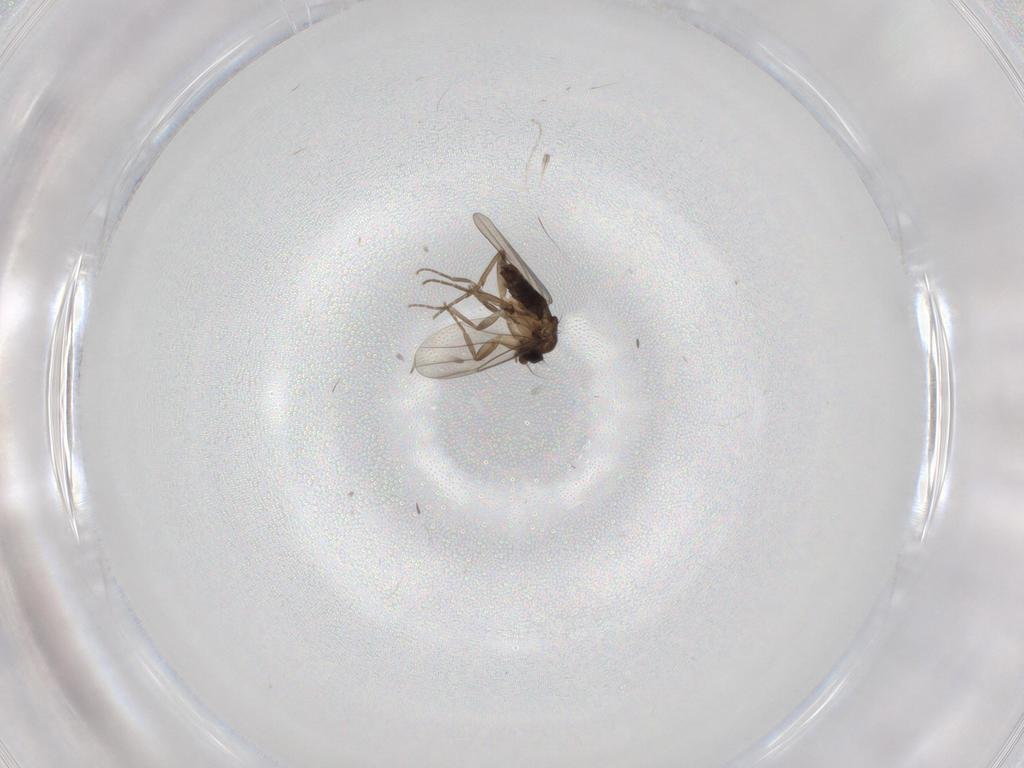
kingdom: Animalia
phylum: Arthropoda
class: Insecta
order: Diptera
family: Phoridae
